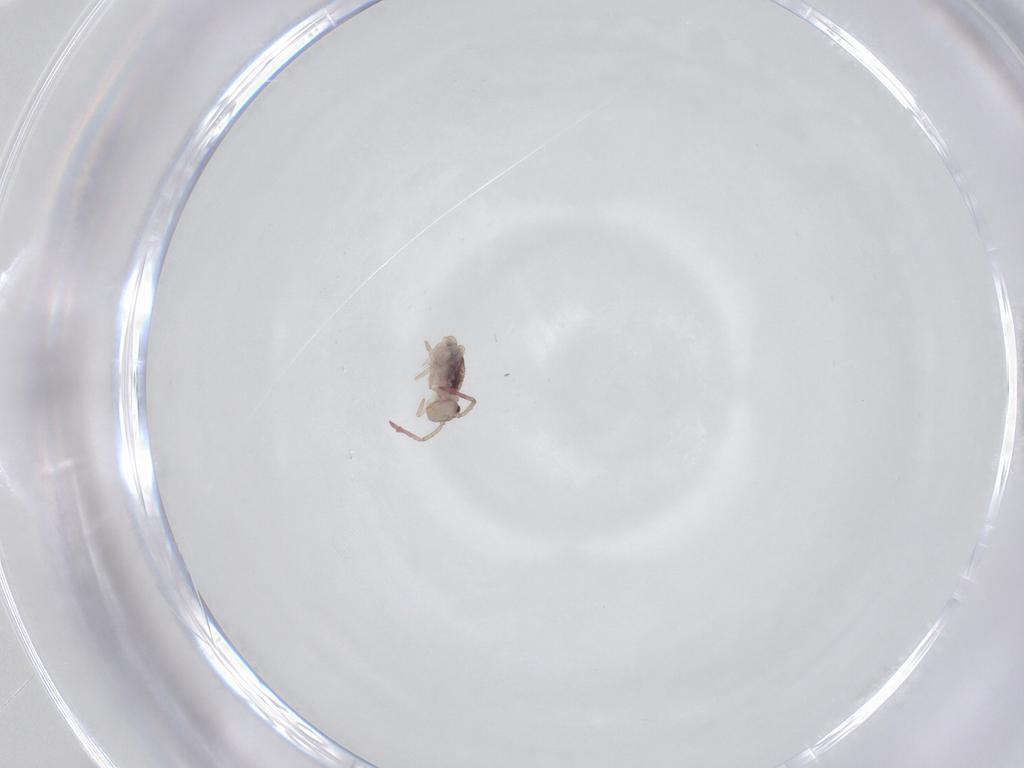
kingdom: Animalia
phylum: Arthropoda
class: Collembola
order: Symphypleona
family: Dicyrtomidae
